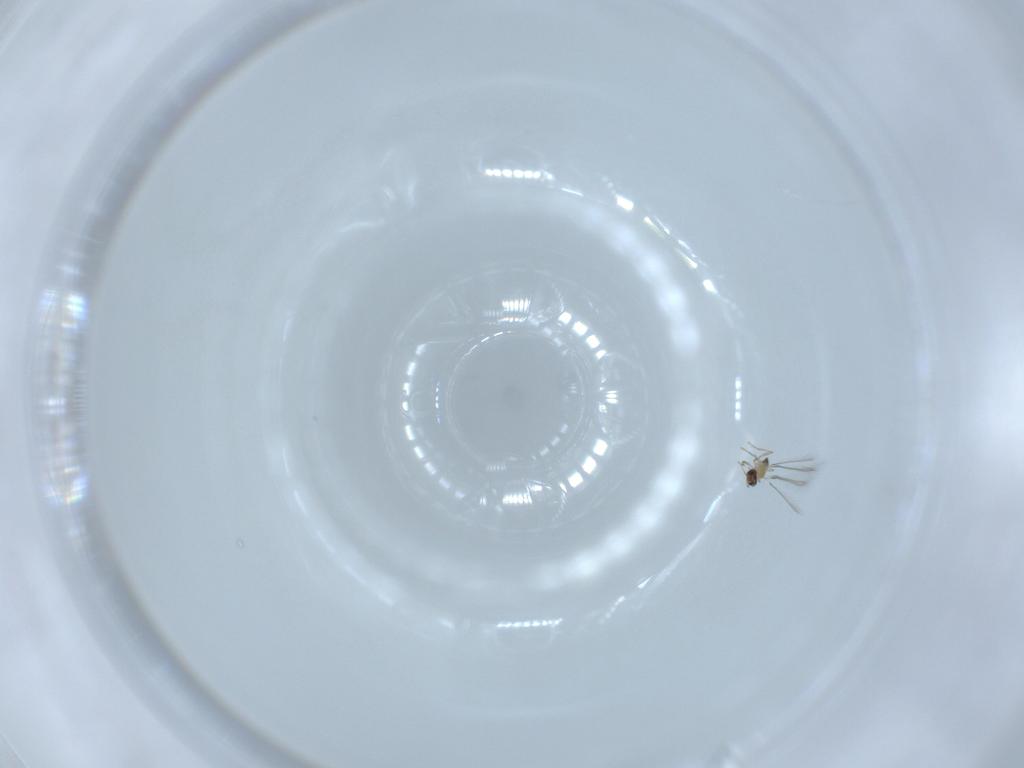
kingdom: Animalia
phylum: Arthropoda
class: Insecta
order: Hymenoptera
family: Mymaridae
